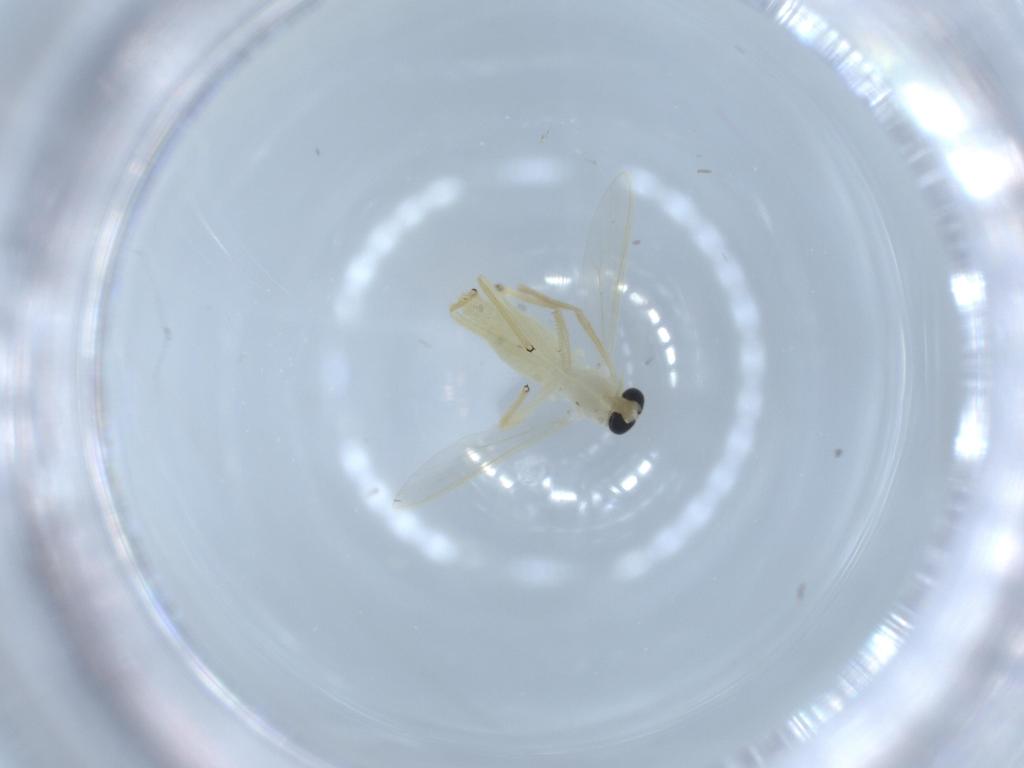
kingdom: Animalia
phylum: Arthropoda
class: Insecta
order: Diptera
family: Chironomidae
